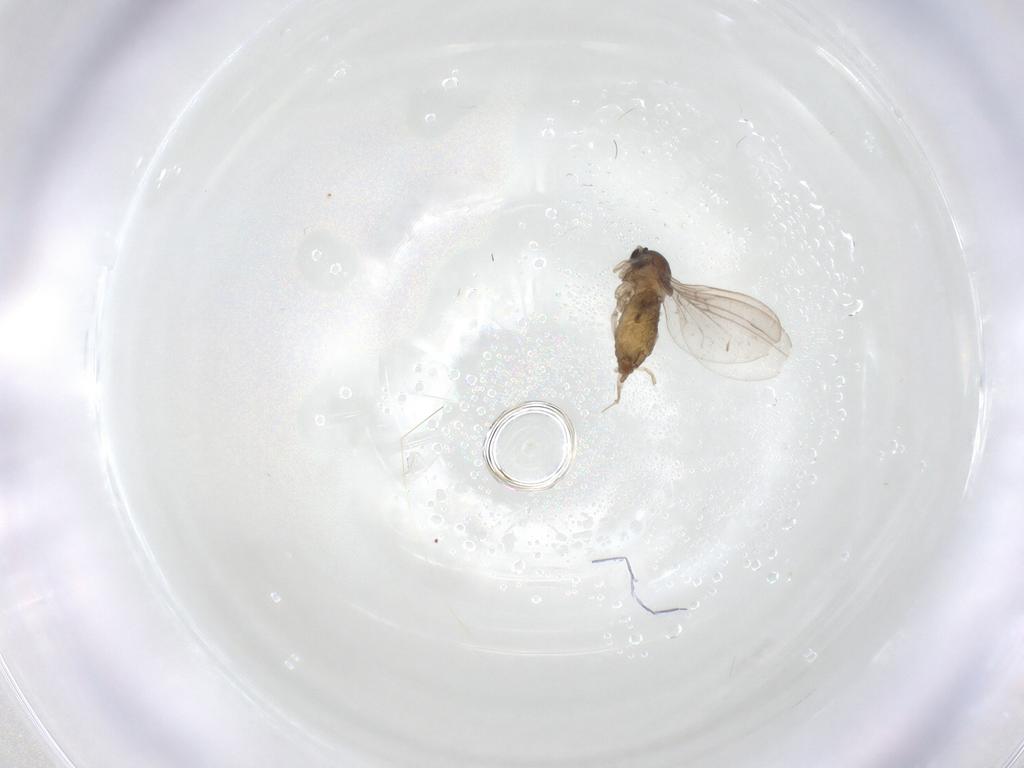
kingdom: Animalia
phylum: Arthropoda
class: Insecta
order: Diptera
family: Cecidomyiidae
